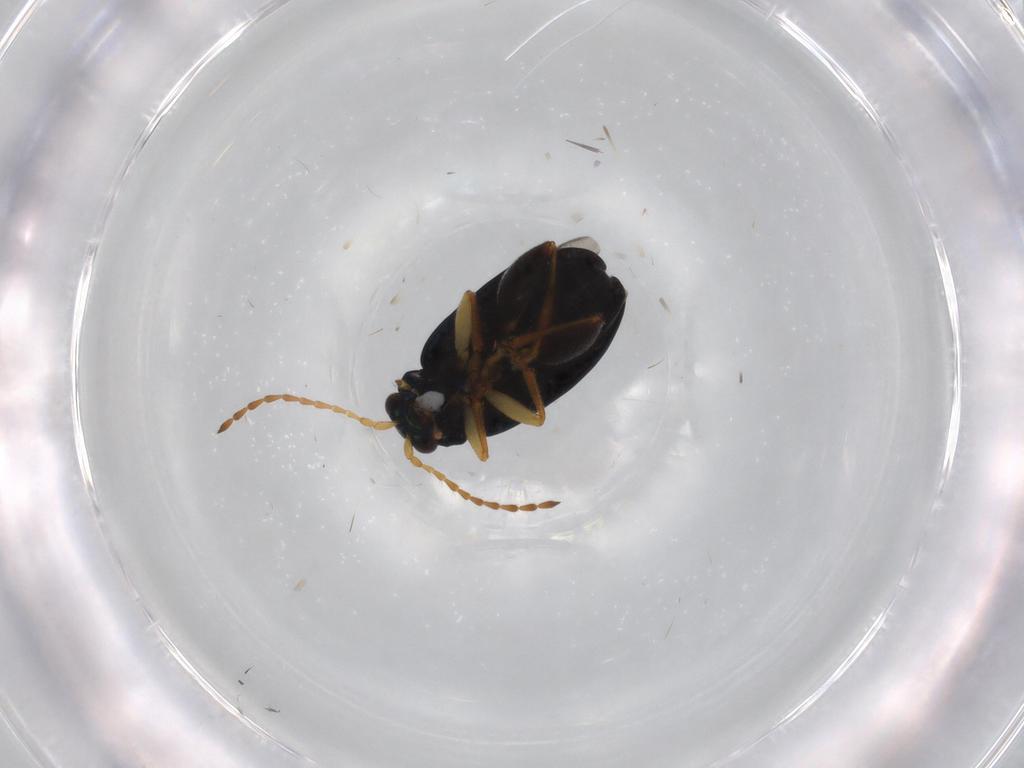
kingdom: Animalia
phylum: Arthropoda
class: Insecta
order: Coleoptera
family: Chrysomelidae
